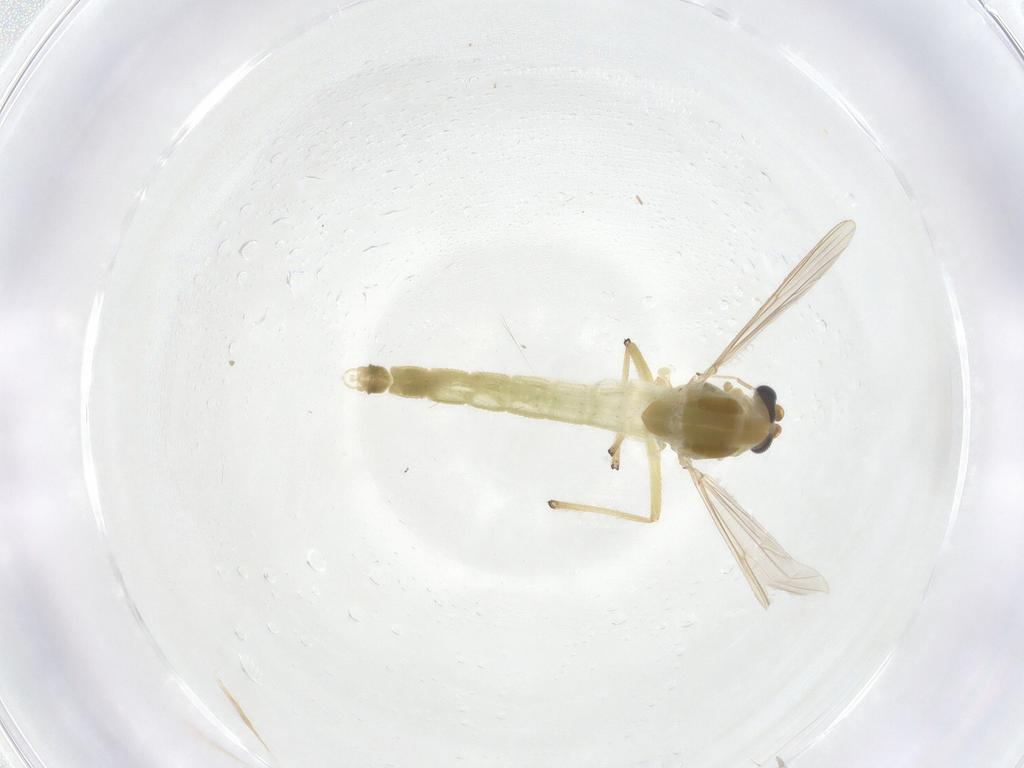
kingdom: Animalia
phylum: Arthropoda
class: Insecta
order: Diptera
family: Chironomidae
